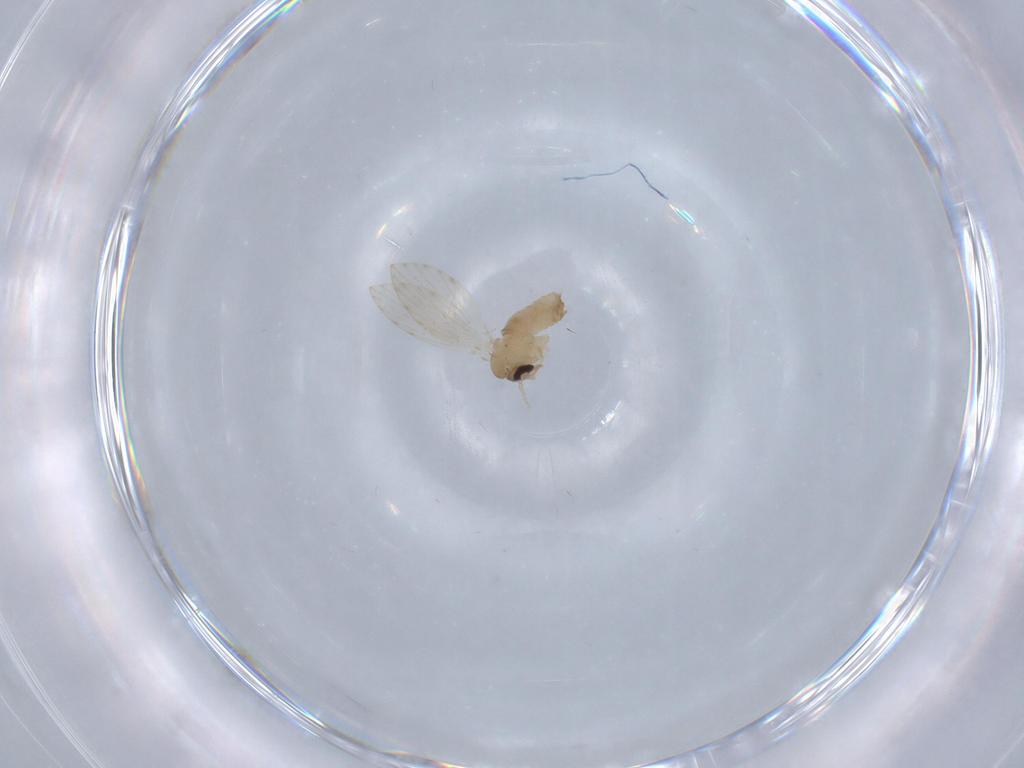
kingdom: Animalia
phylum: Arthropoda
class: Insecta
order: Diptera
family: Psychodidae
